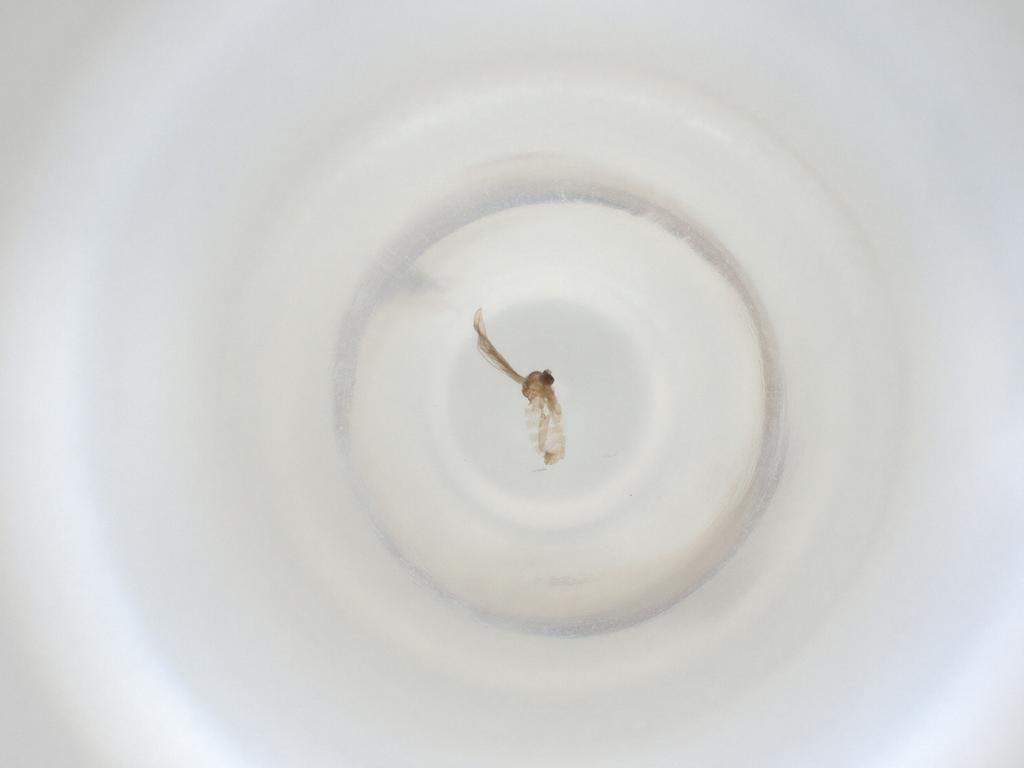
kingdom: Animalia
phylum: Arthropoda
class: Insecta
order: Diptera
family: Cecidomyiidae
